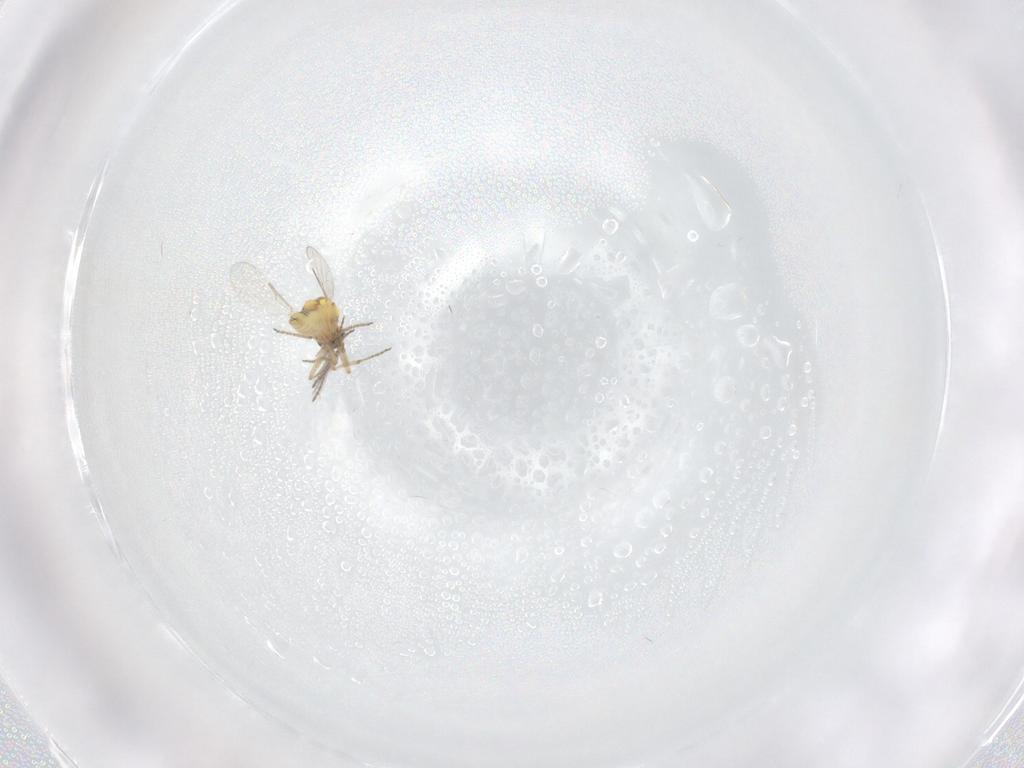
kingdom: Animalia
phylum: Arthropoda
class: Insecta
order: Diptera
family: Ceratopogonidae
